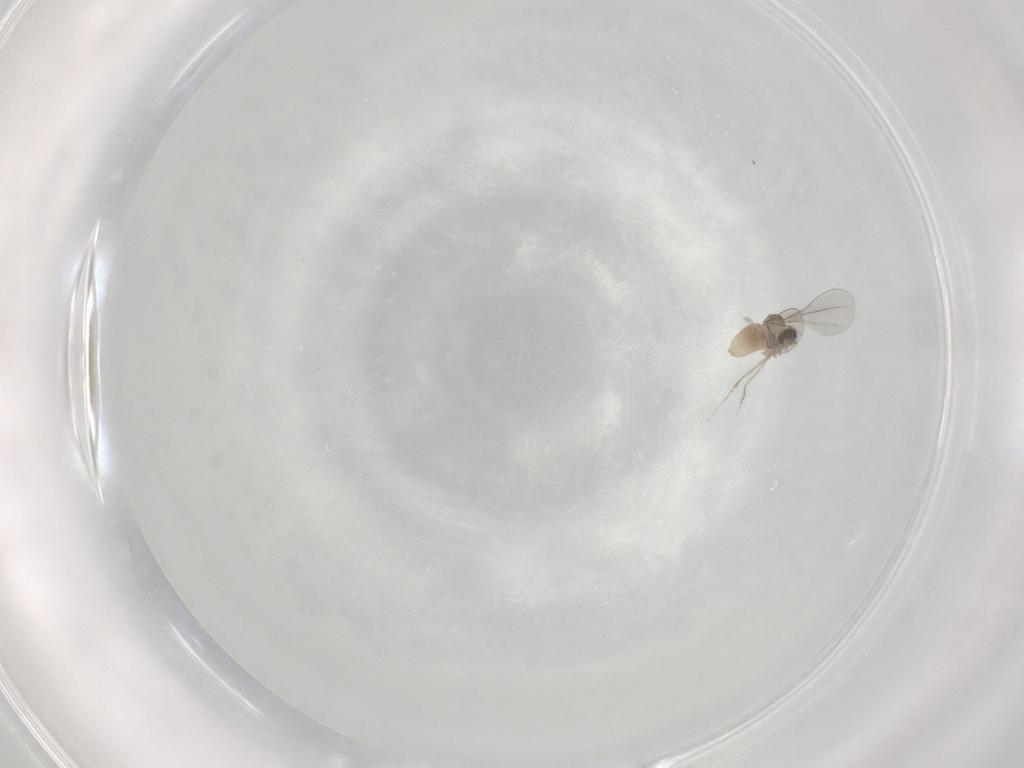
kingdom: Animalia
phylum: Arthropoda
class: Insecta
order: Diptera
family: Cecidomyiidae
